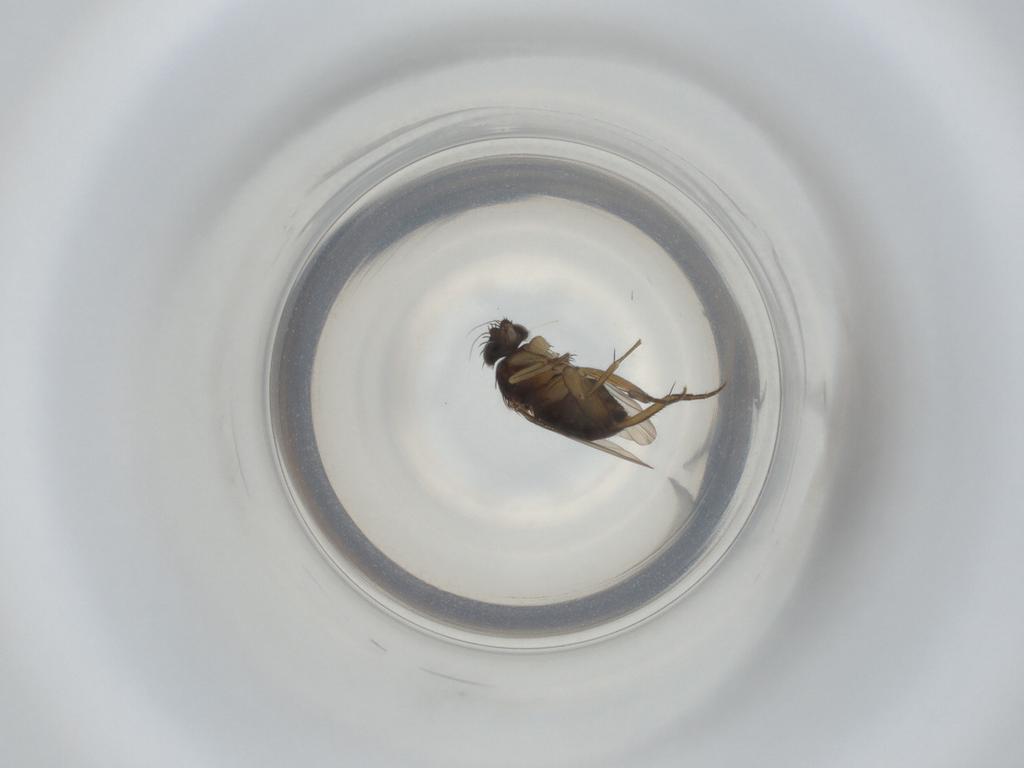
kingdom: Animalia
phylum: Arthropoda
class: Insecta
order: Diptera
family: Phoridae
